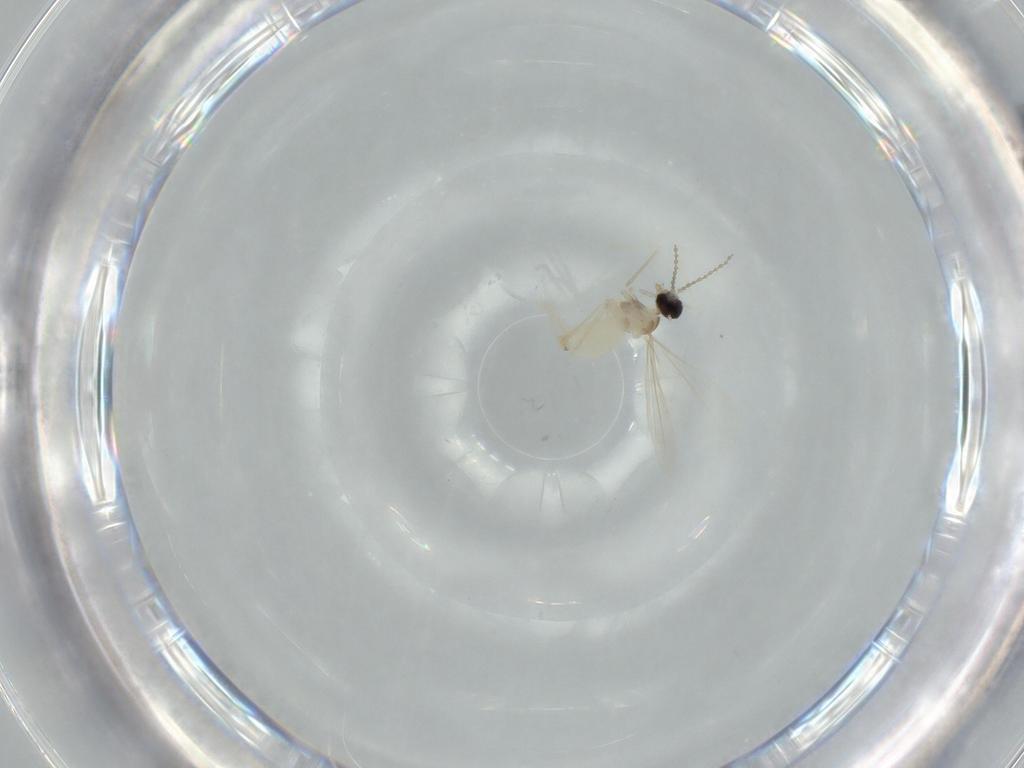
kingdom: Animalia
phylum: Arthropoda
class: Insecta
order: Diptera
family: Cecidomyiidae
